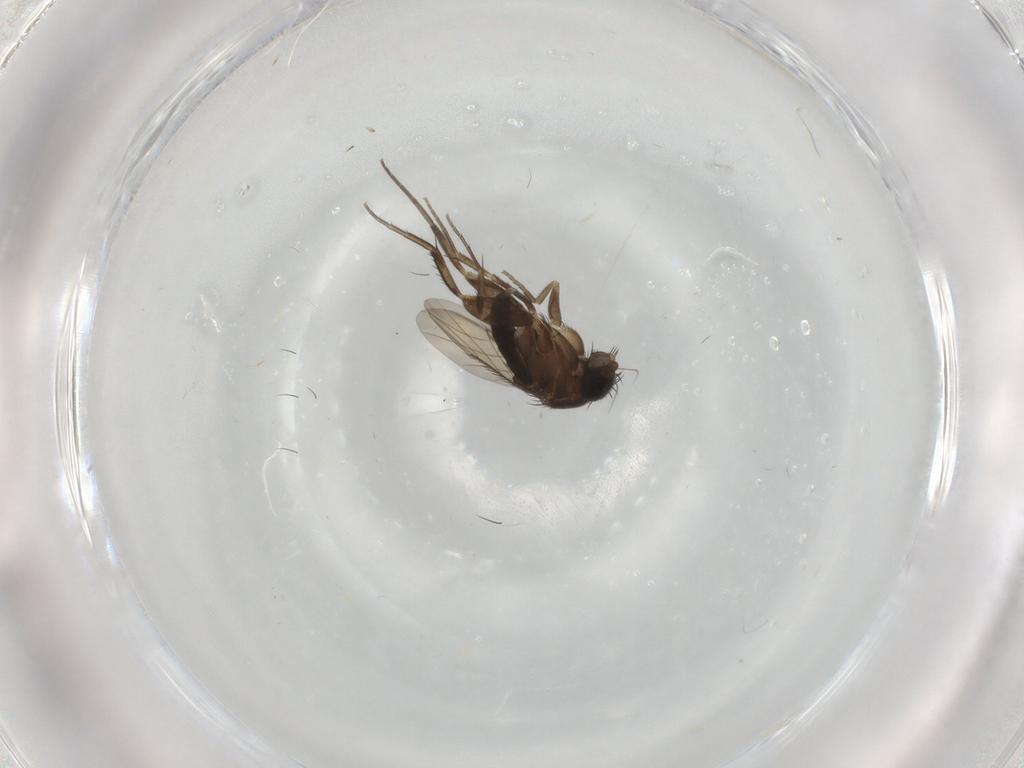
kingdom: Animalia
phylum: Arthropoda
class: Insecta
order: Diptera
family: Phoridae
